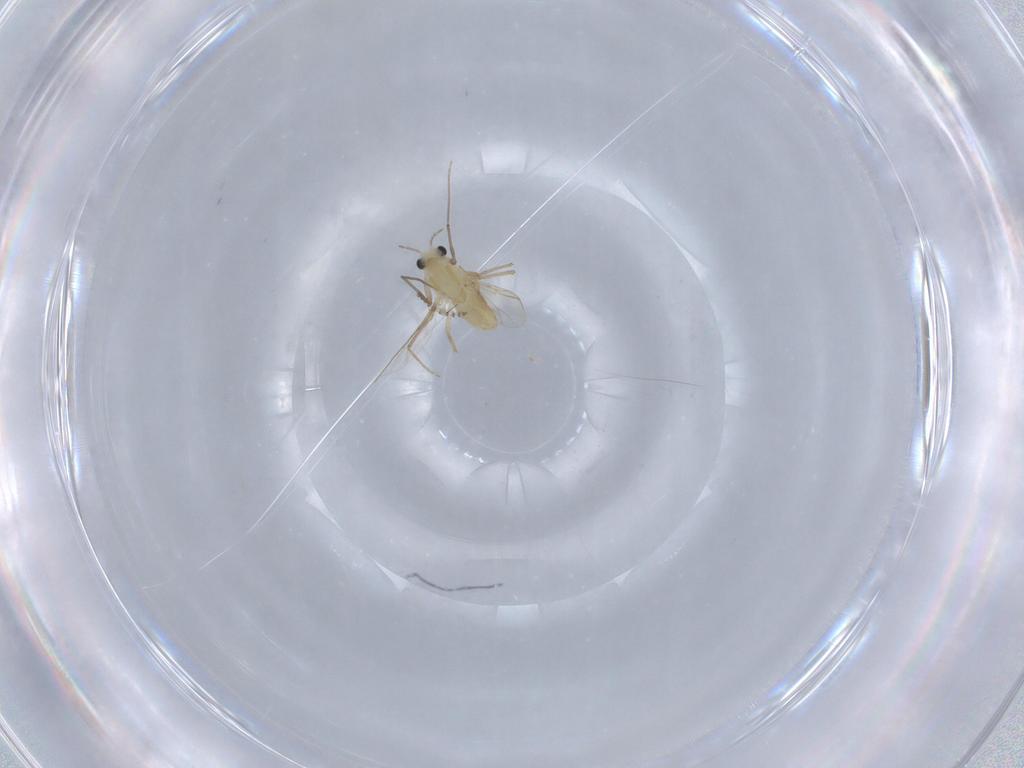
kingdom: Animalia
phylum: Arthropoda
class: Insecta
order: Diptera
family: Chironomidae
